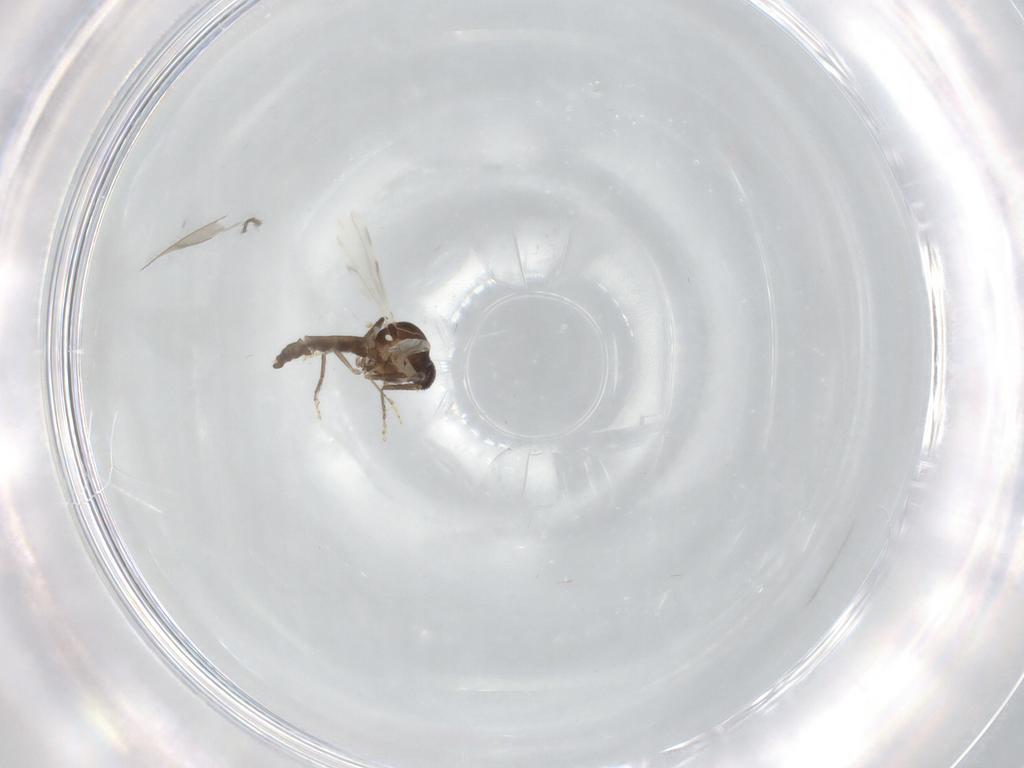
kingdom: Animalia
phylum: Arthropoda
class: Insecta
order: Diptera
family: Ceratopogonidae
